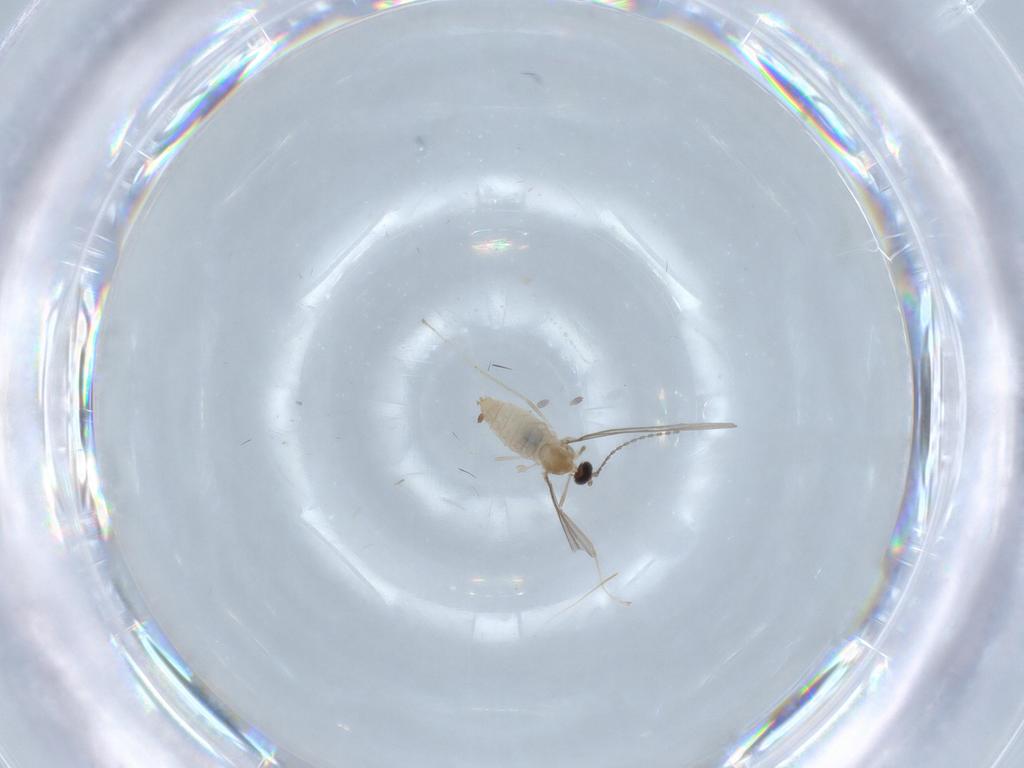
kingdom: Animalia
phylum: Arthropoda
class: Insecta
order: Diptera
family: Cecidomyiidae
